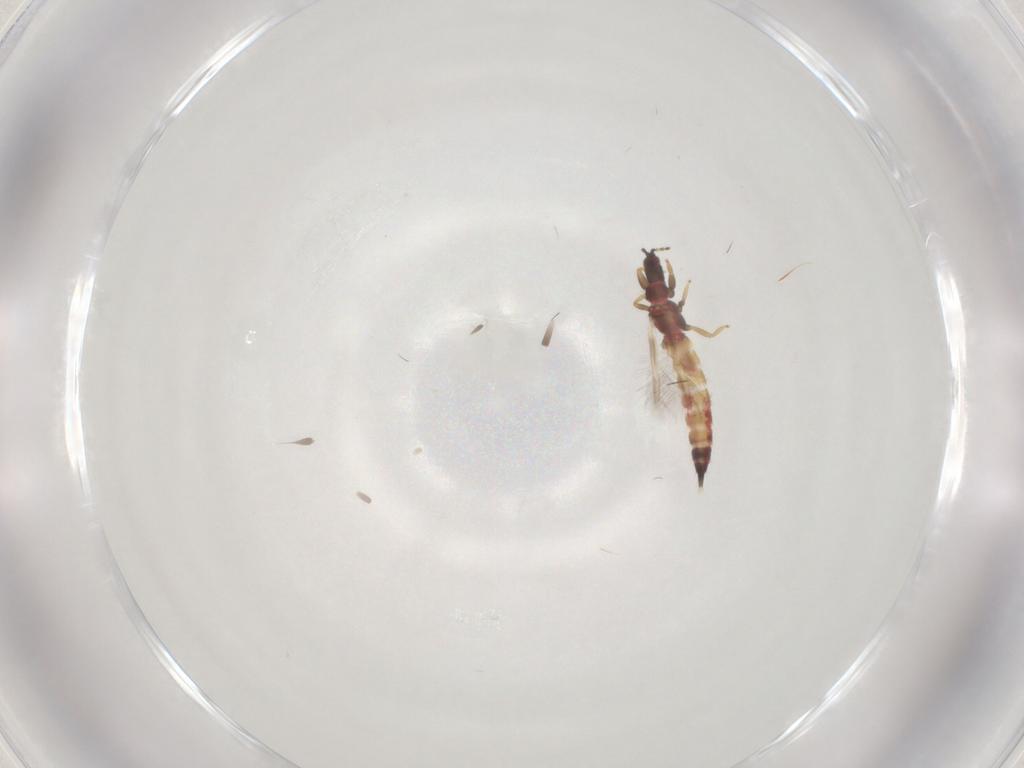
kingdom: Animalia
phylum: Arthropoda
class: Insecta
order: Thysanoptera
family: Phlaeothripidae
